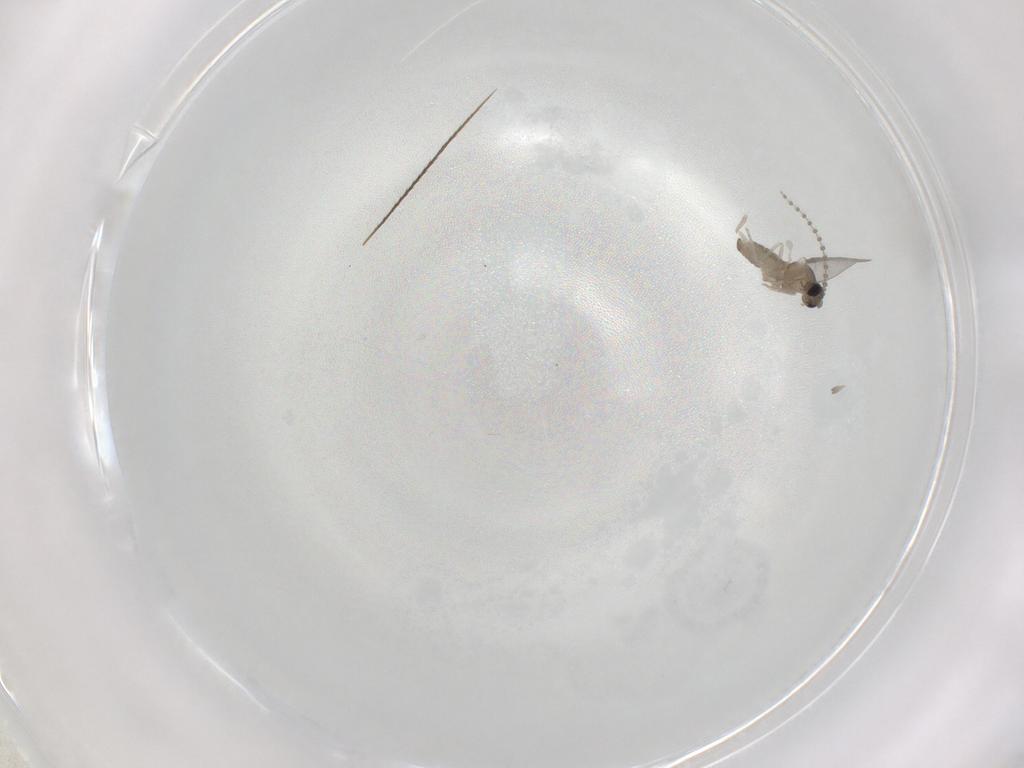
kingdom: Animalia
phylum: Arthropoda
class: Insecta
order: Diptera
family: Cecidomyiidae
